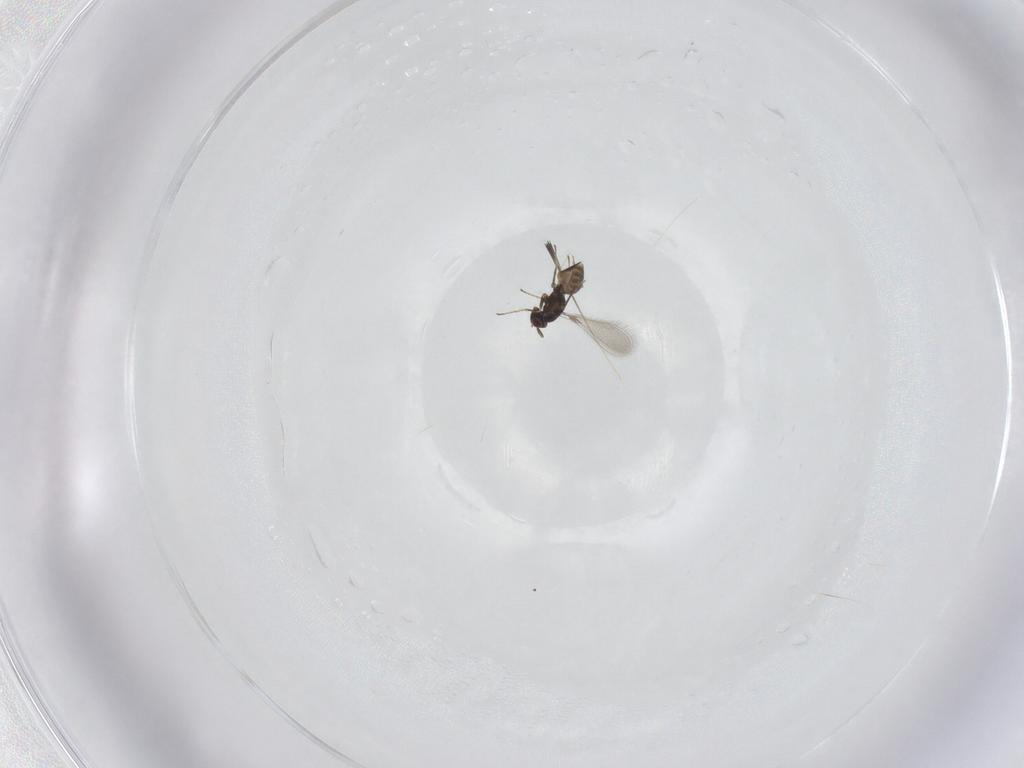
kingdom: Animalia
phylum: Arthropoda
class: Insecta
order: Hymenoptera
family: Mymaridae
